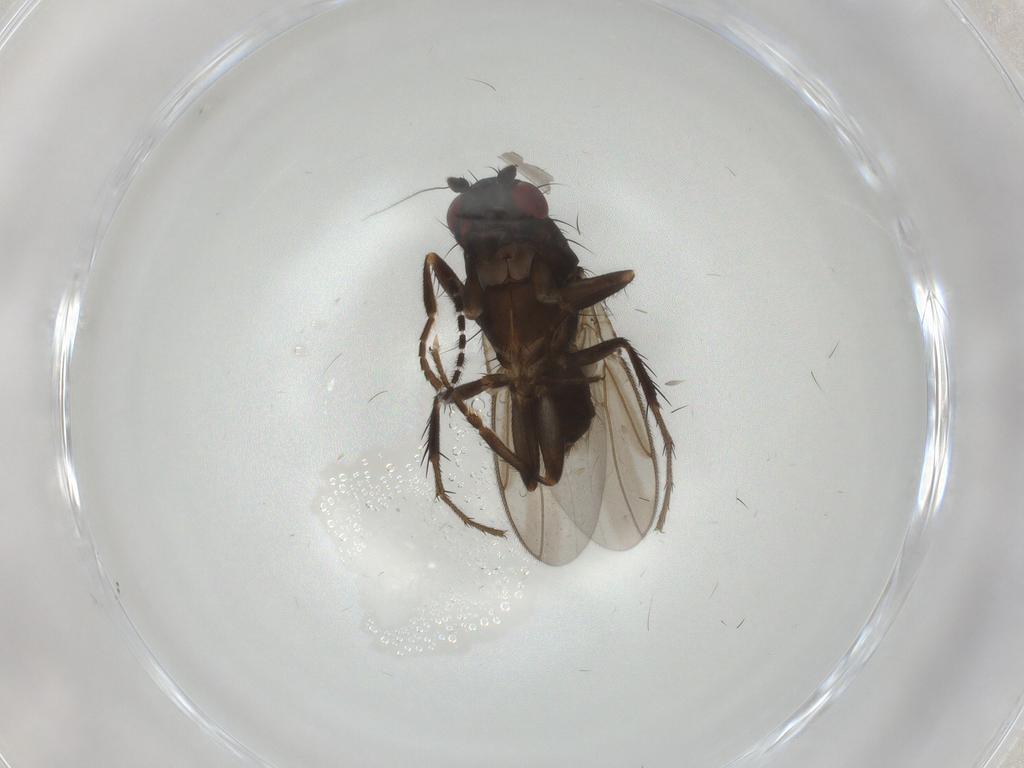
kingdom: Animalia
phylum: Arthropoda
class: Insecta
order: Diptera
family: Sphaeroceridae
